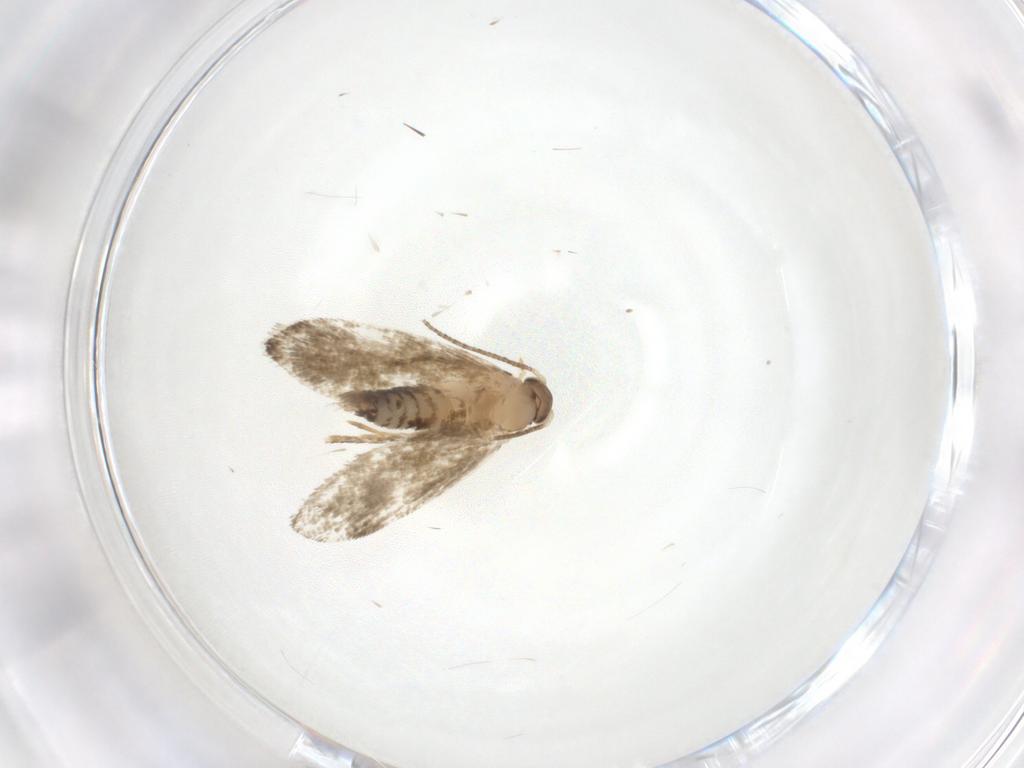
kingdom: Animalia
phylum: Arthropoda
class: Insecta
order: Lepidoptera
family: Tineidae
